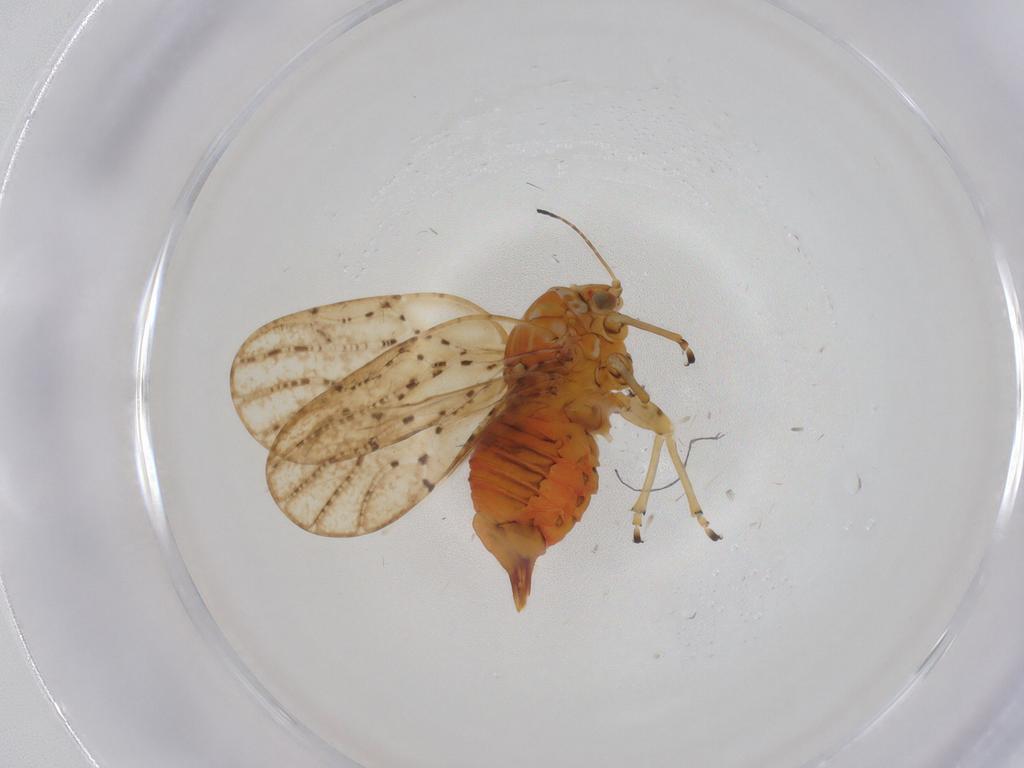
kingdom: Animalia
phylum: Arthropoda
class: Insecta
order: Hemiptera
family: Liviidae
